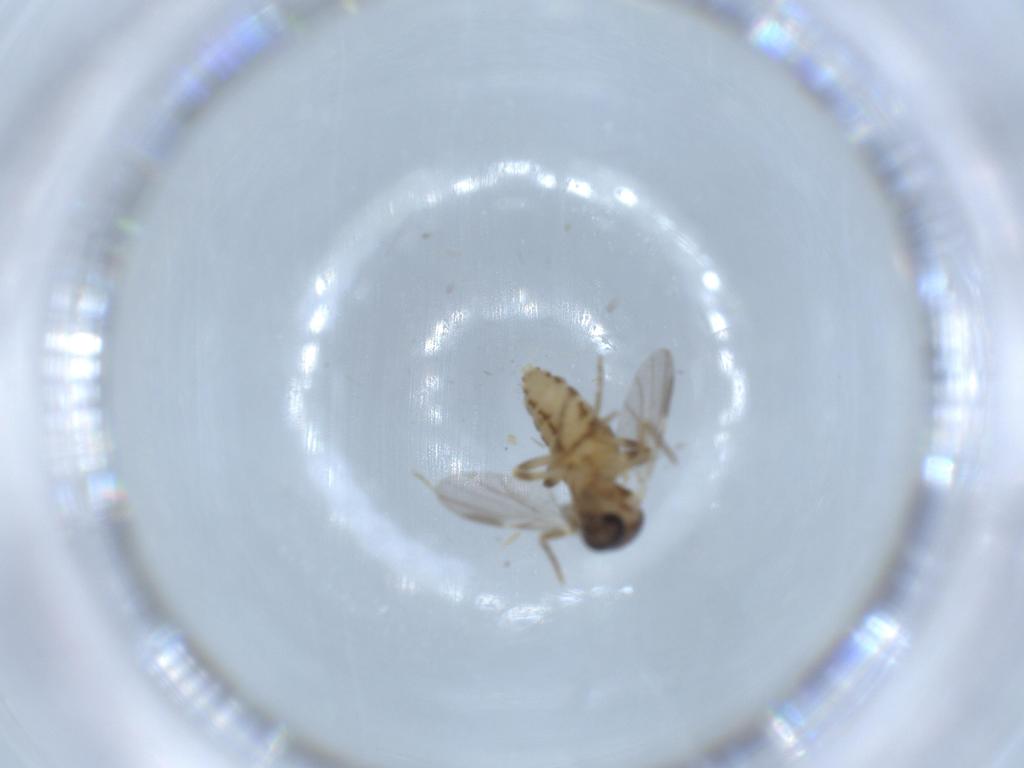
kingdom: Animalia
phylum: Arthropoda
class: Insecta
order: Diptera
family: Ceratopogonidae
